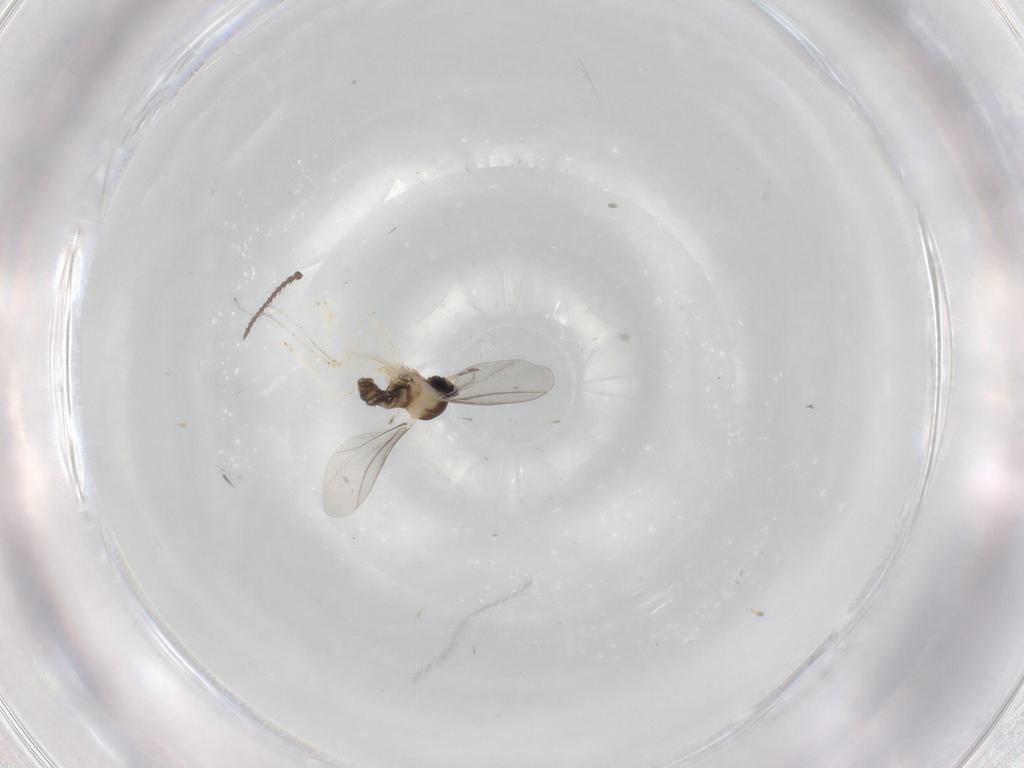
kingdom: Animalia
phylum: Arthropoda
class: Insecta
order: Diptera
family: Cecidomyiidae
